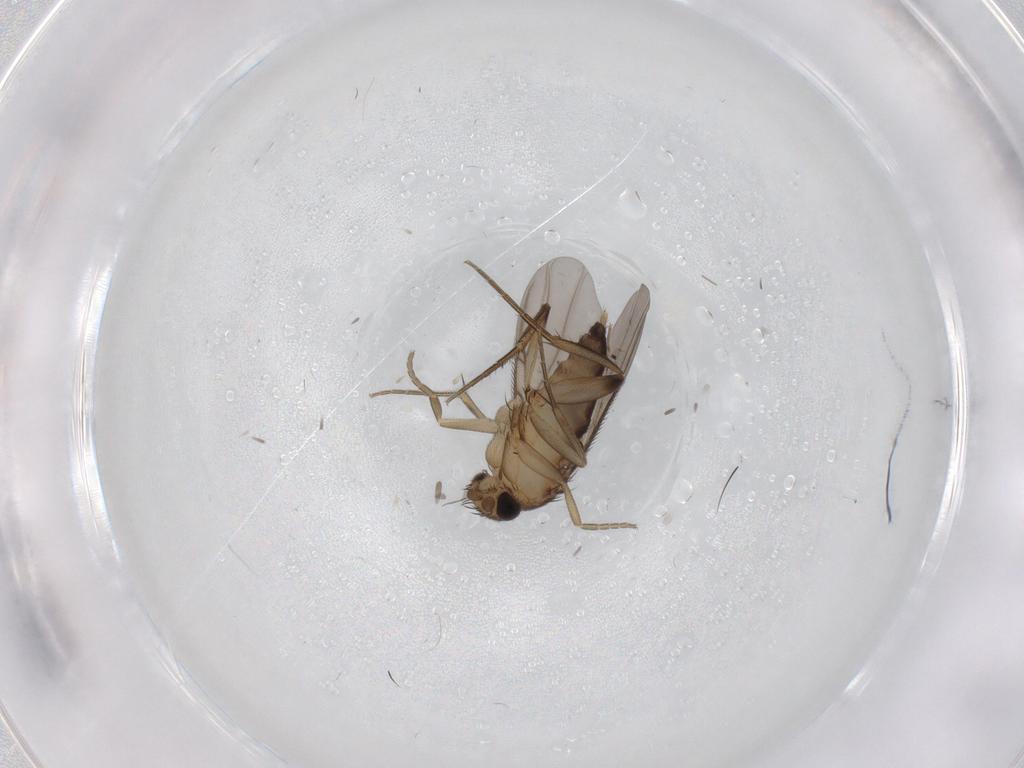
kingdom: Animalia
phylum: Arthropoda
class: Insecta
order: Diptera
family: Phoridae
